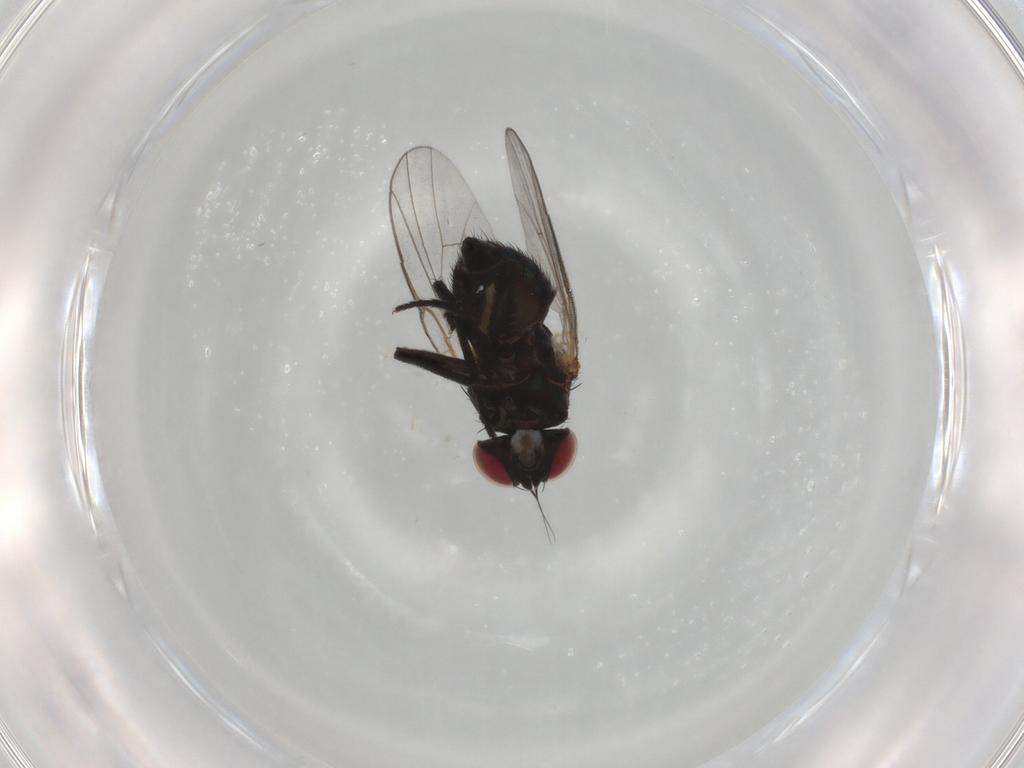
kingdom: Animalia
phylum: Arthropoda
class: Insecta
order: Diptera
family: Agromyzidae
